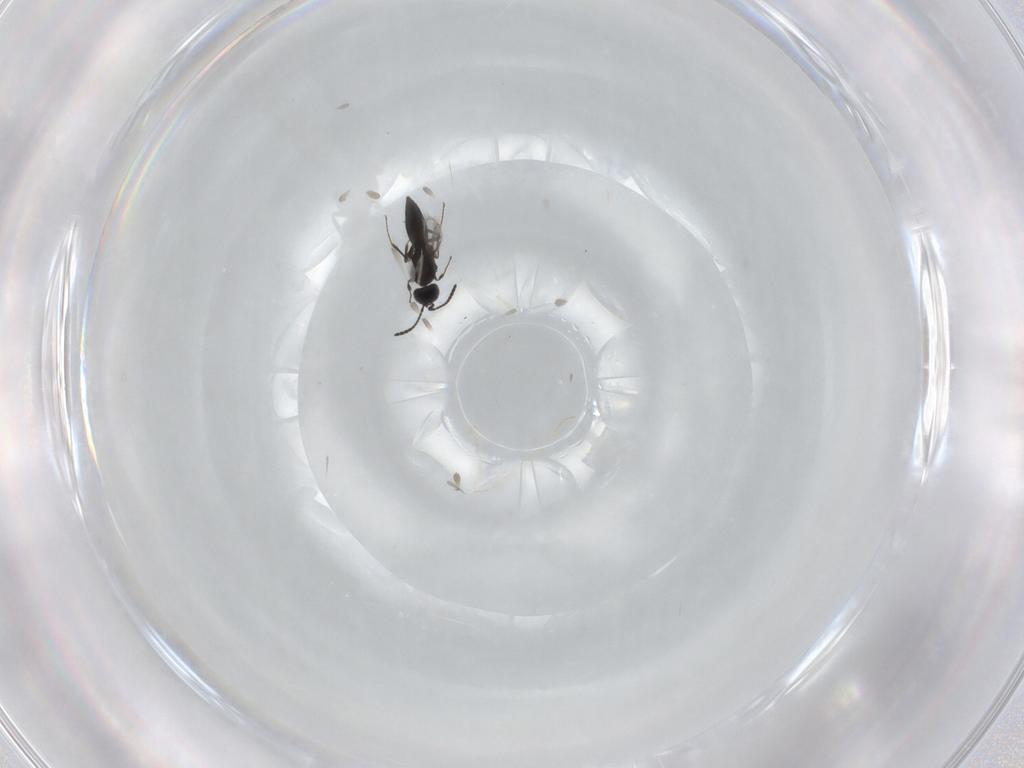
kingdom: Animalia
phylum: Arthropoda
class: Insecta
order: Hymenoptera
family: Scelionidae
